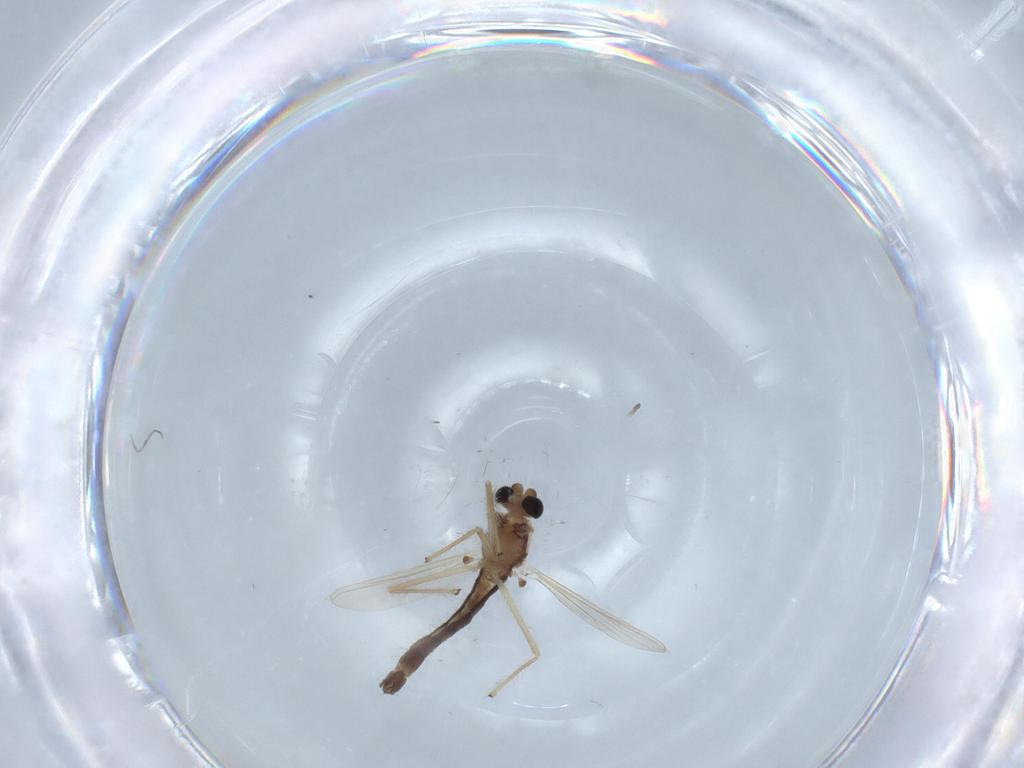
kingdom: Animalia
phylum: Arthropoda
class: Insecta
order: Diptera
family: Chironomidae
